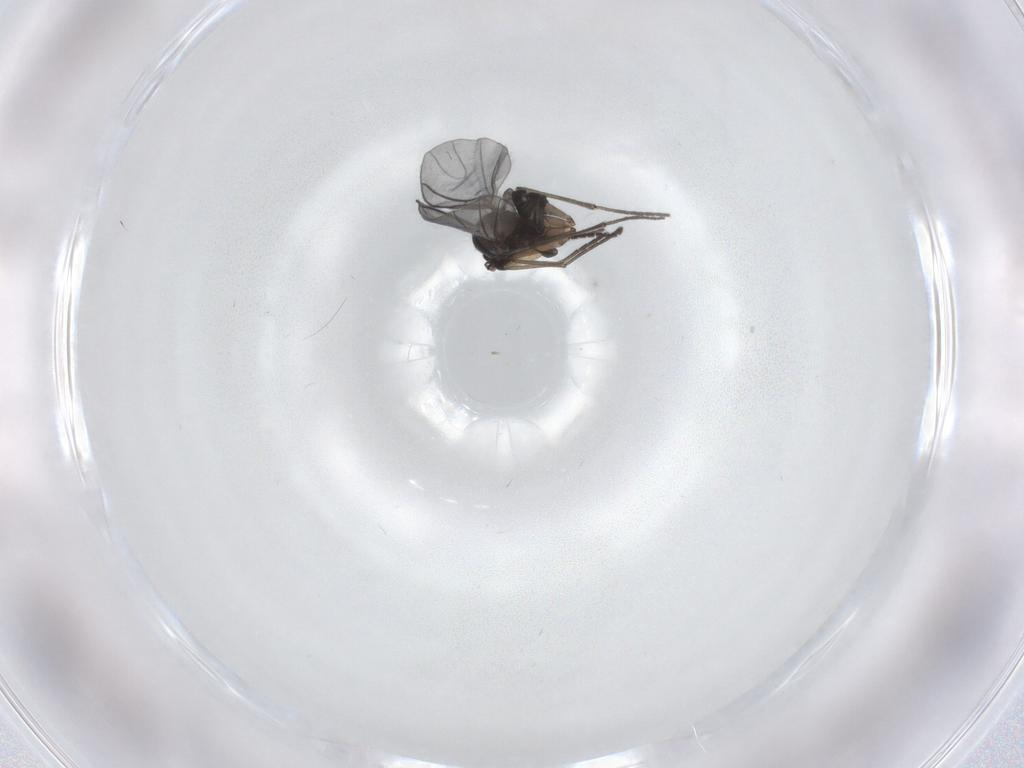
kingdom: Animalia
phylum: Arthropoda
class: Insecta
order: Diptera
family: Sciaridae
